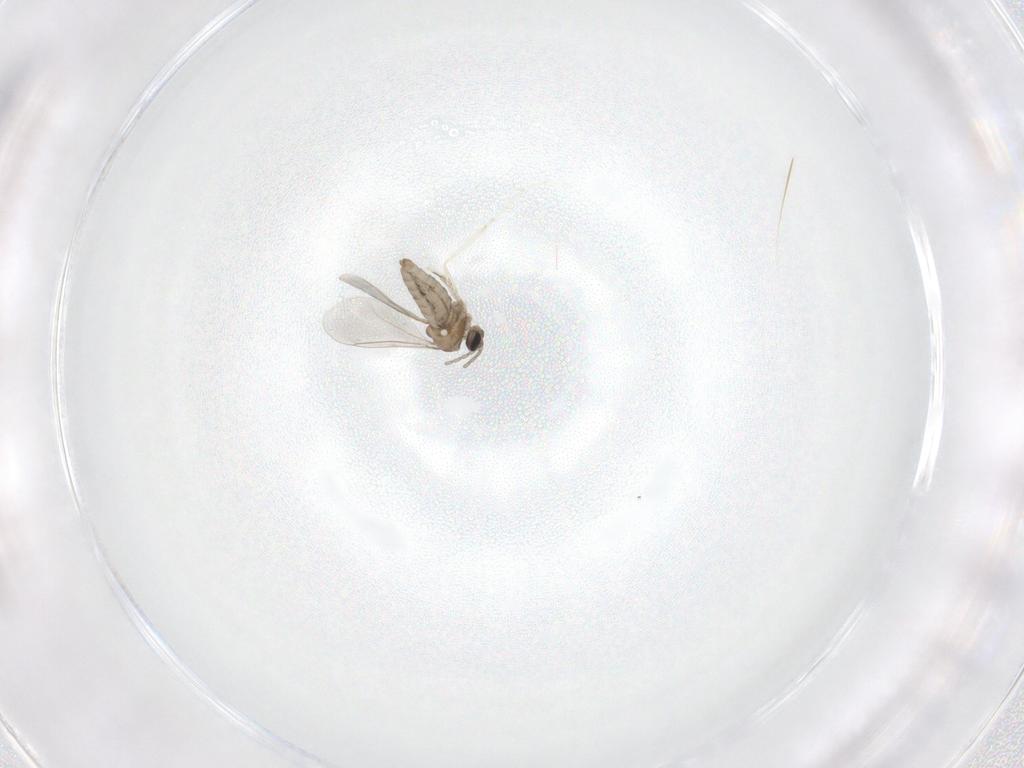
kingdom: Animalia
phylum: Arthropoda
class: Insecta
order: Diptera
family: Cecidomyiidae
